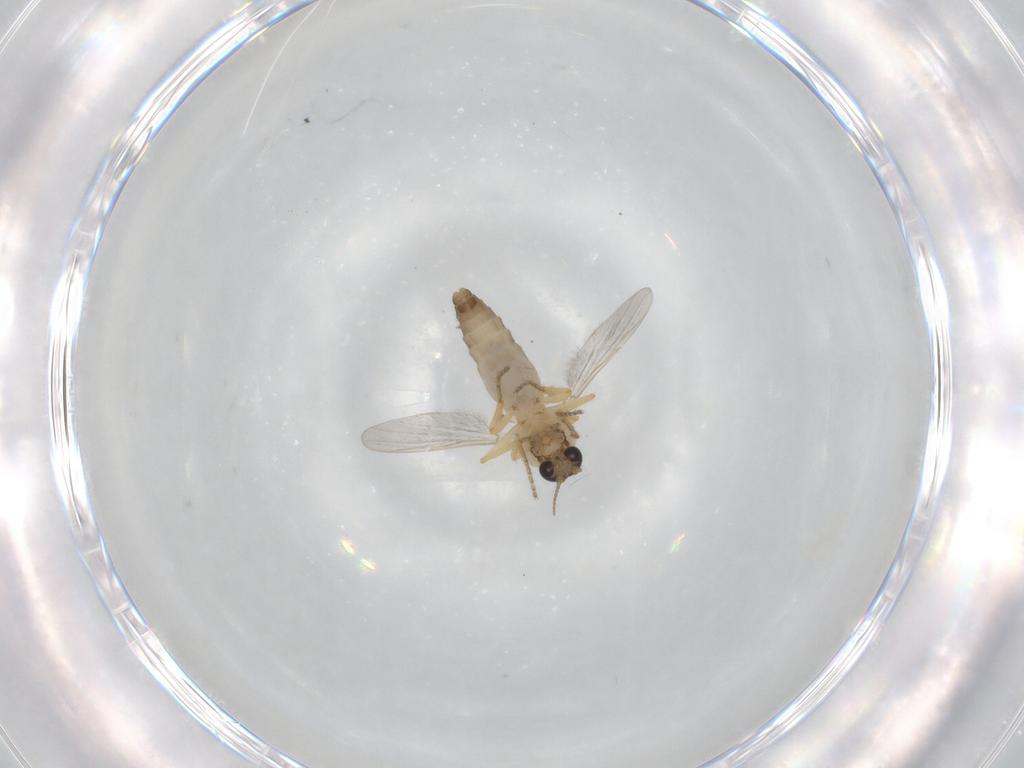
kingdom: Animalia
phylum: Arthropoda
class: Insecta
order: Diptera
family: Ceratopogonidae
